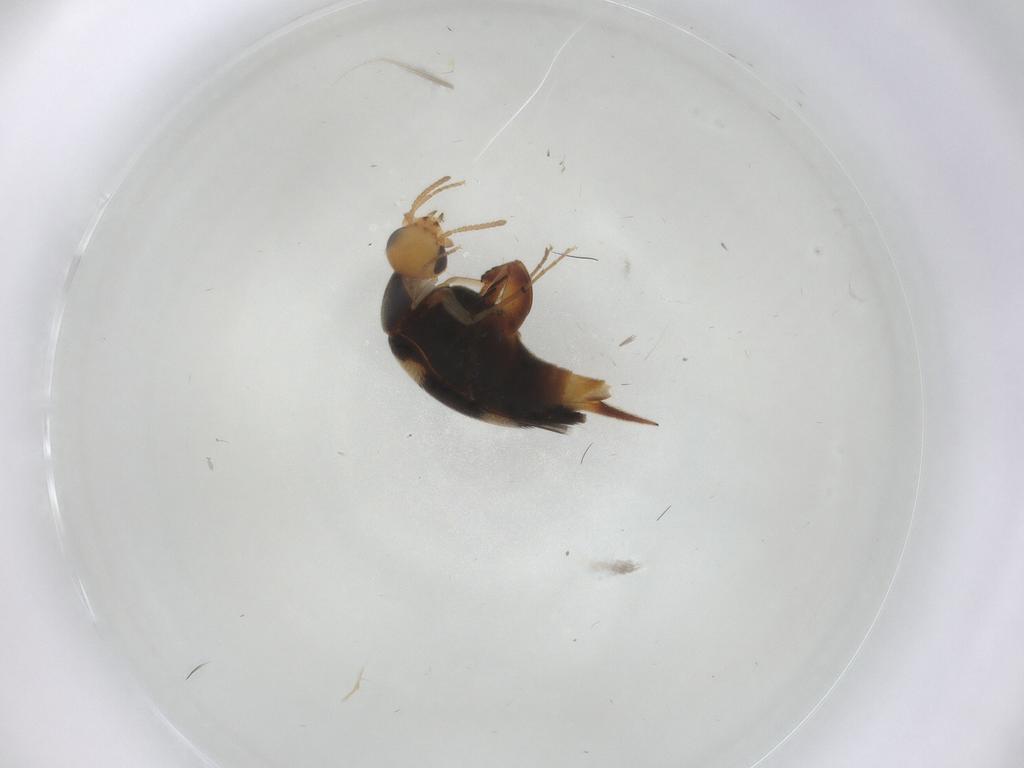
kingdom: Animalia
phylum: Arthropoda
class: Insecta
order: Coleoptera
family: Mordellidae
